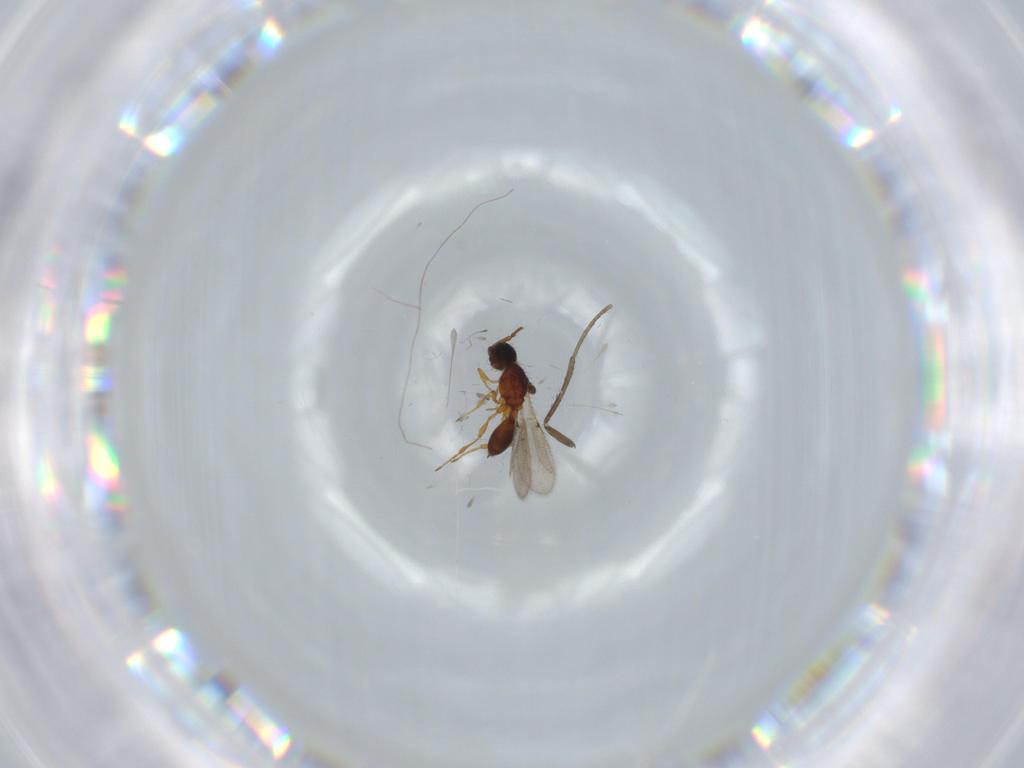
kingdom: Animalia
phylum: Arthropoda
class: Insecta
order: Hymenoptera
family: Diapriidae
